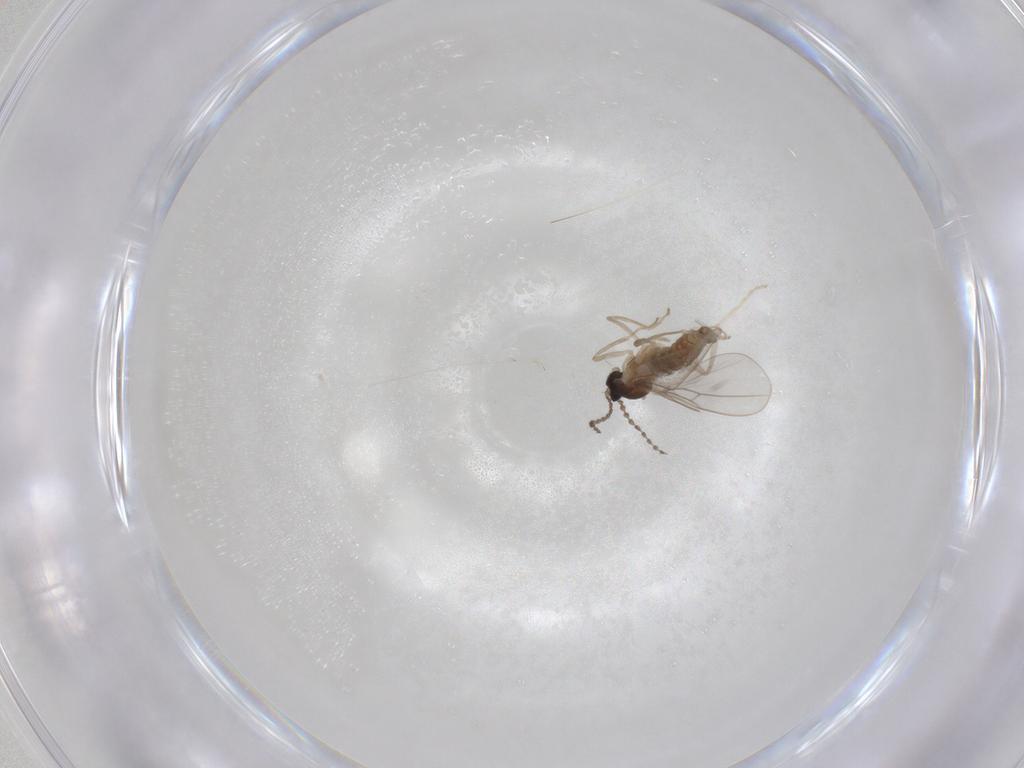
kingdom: Animalia
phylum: Arthropoda
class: Insecta
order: Diptera
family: Cecidomyiidae
